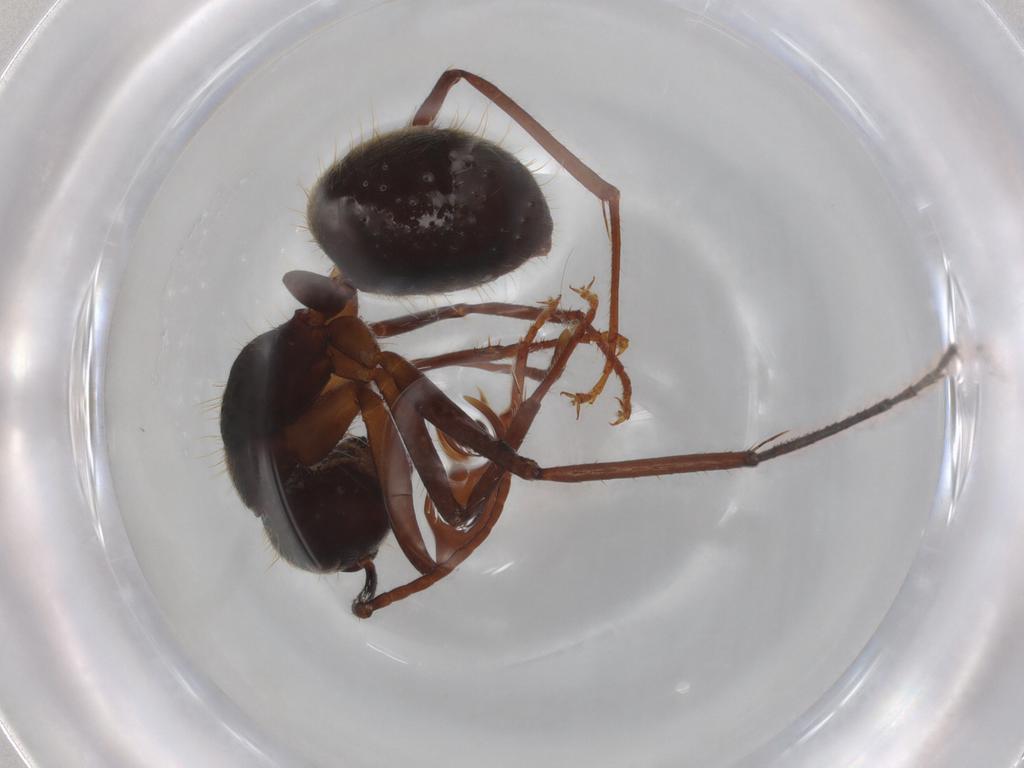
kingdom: Animalia
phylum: Arthropoda
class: Insecta
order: Hymenoptera
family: Formicidae
